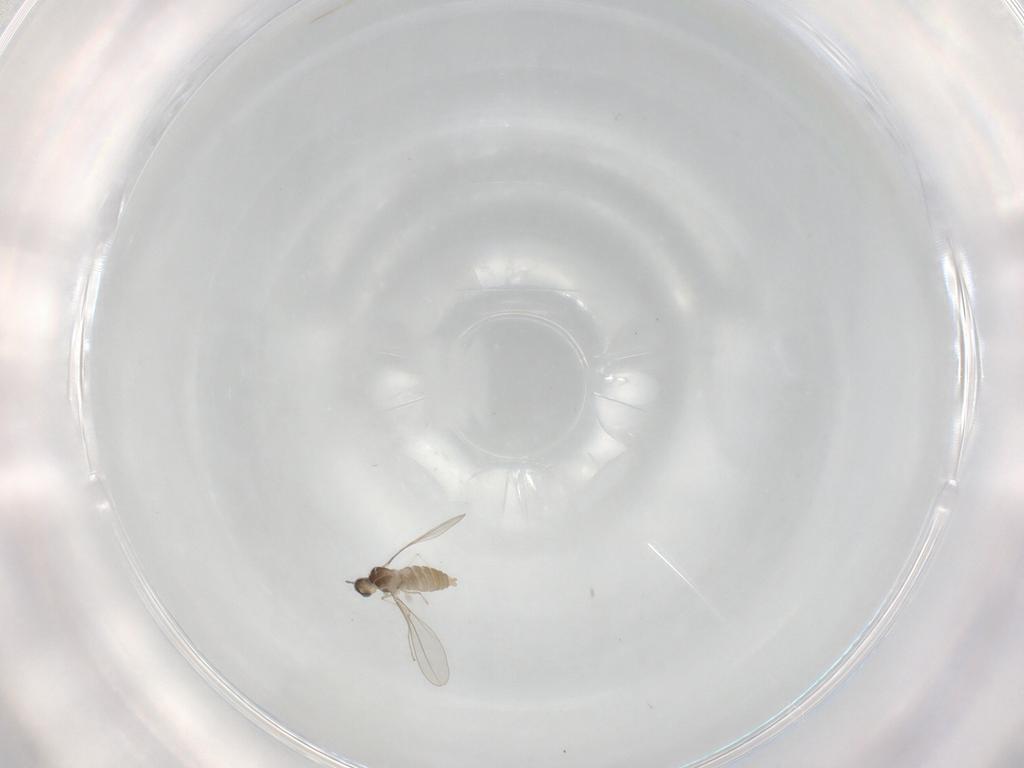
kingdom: Animalia
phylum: Arthropoda
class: Insecta
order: Diptera
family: Cecidomyiidae
